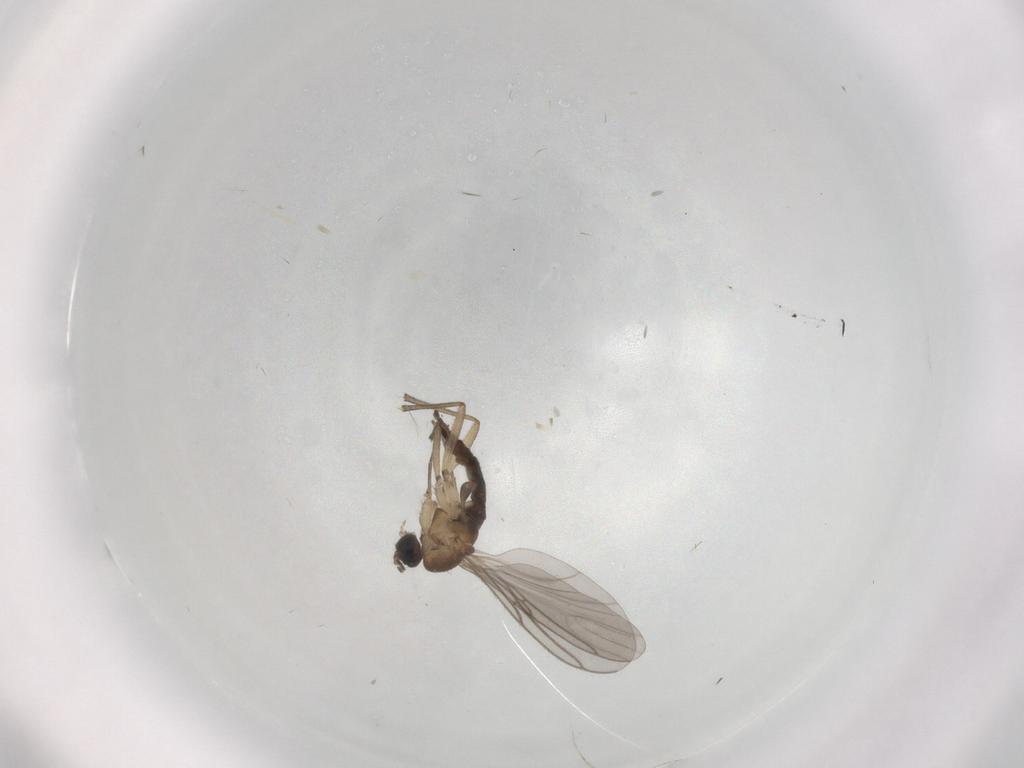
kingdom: Animalia
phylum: Arthropoda
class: Insecta
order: Diptera
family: Sciaridae
